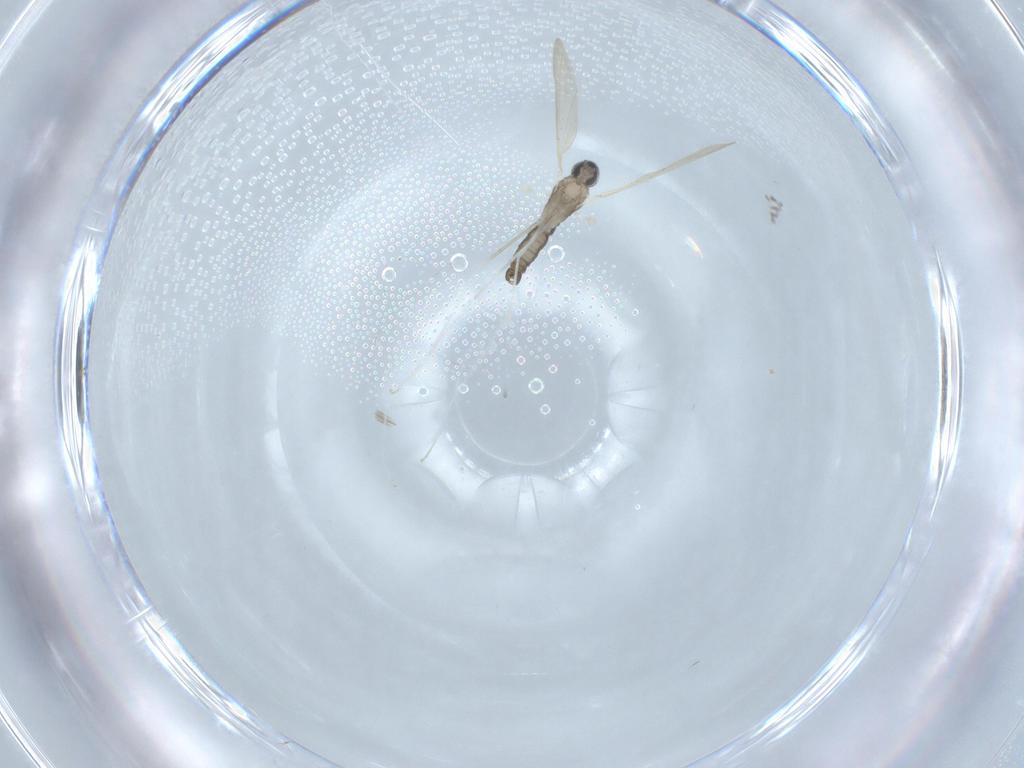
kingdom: Animalia
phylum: Arthropoda
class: Insecta
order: Diptera
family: Cecidomyiidae
